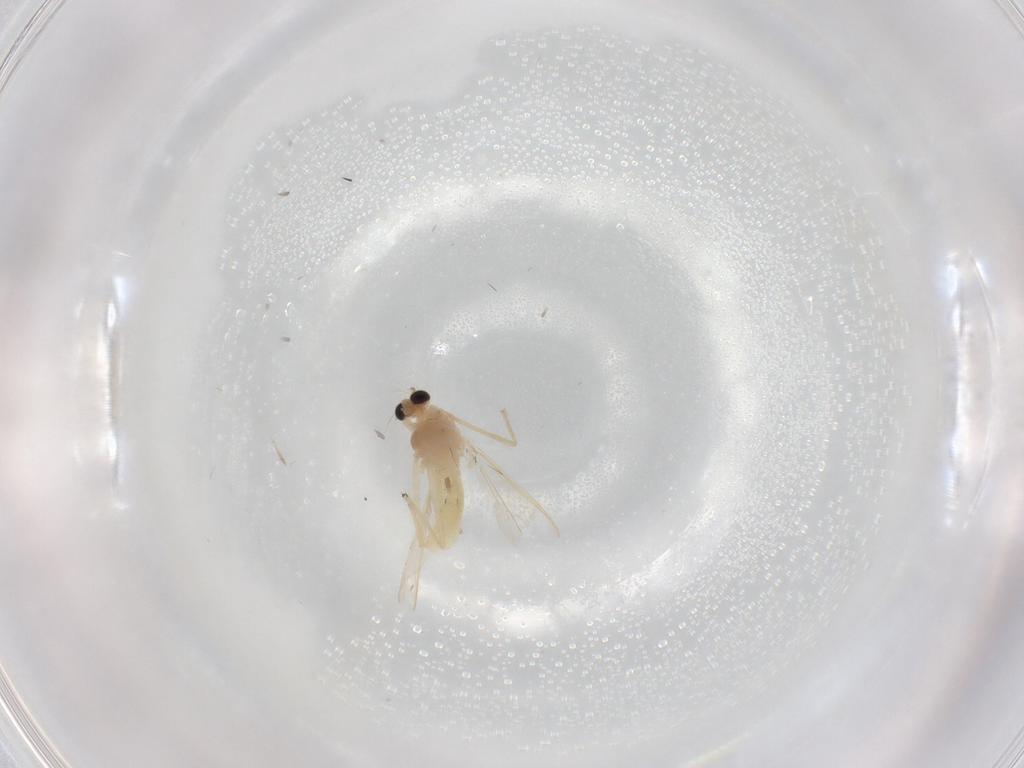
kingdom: Animalia
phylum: Arthropoda
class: Insecta
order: Diptera
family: Chironomidae
